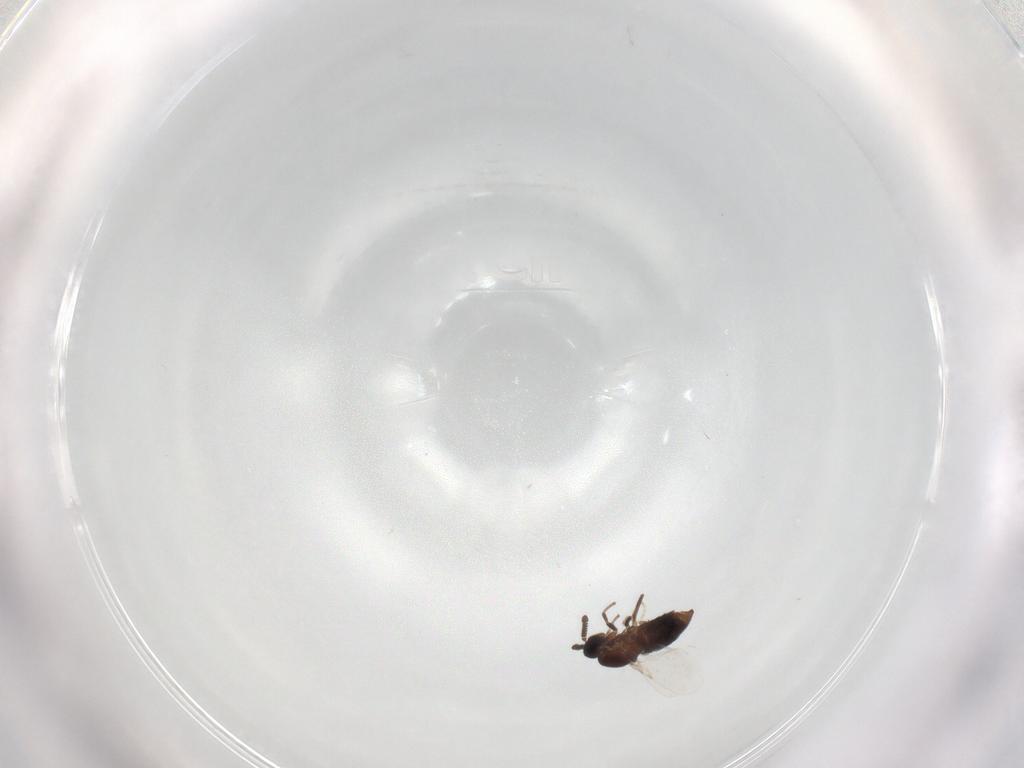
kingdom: Animalia
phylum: Arthropoda
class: Insecta
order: Diptera
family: Scatopsidae
